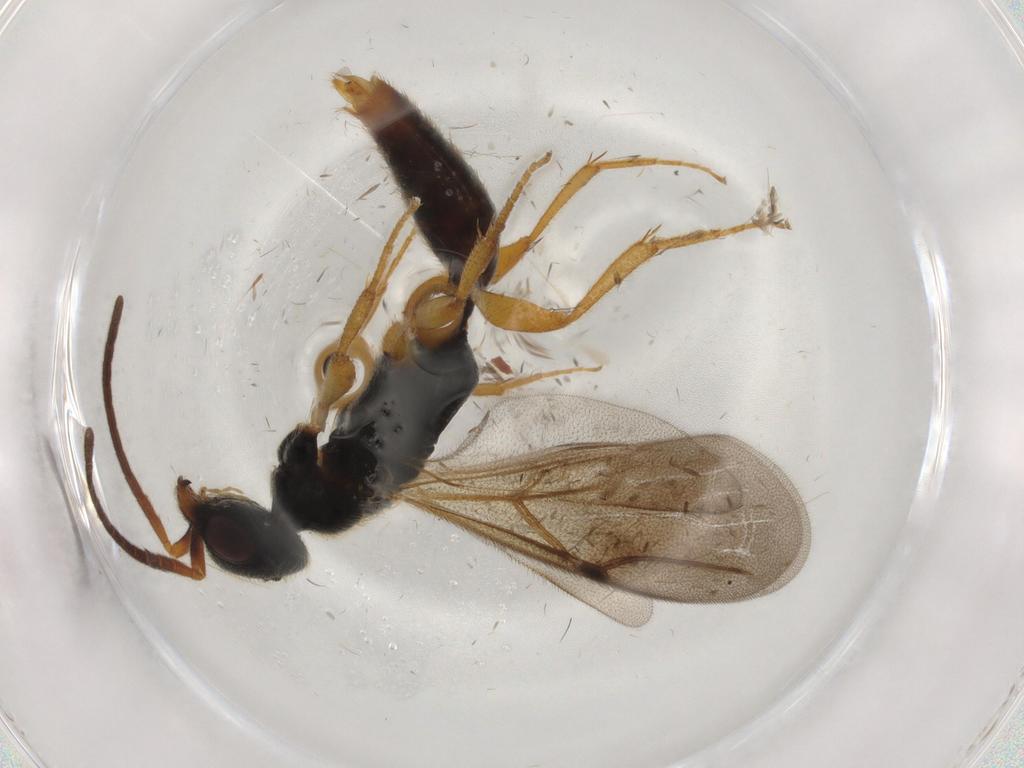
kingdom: Animalia
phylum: Arthropoda
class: Insecta
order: Hymenoptera
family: Bethylidae
